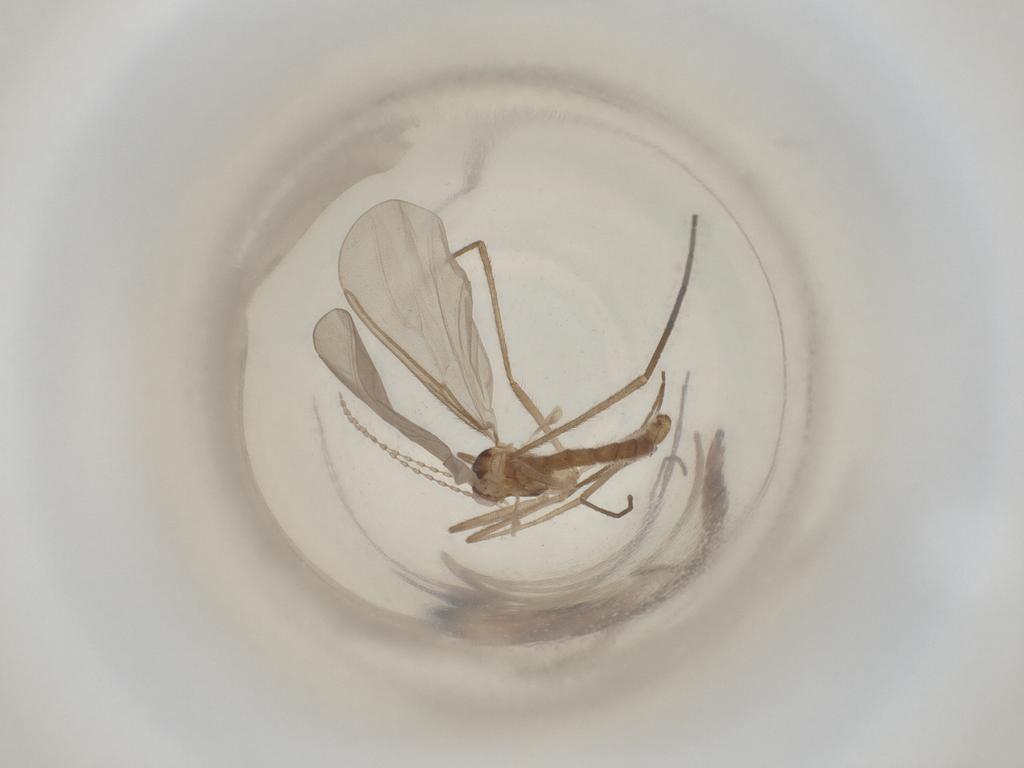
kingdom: Animalia
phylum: Arthropoda
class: Insecta
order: Diptera
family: Cecidomyiidae
